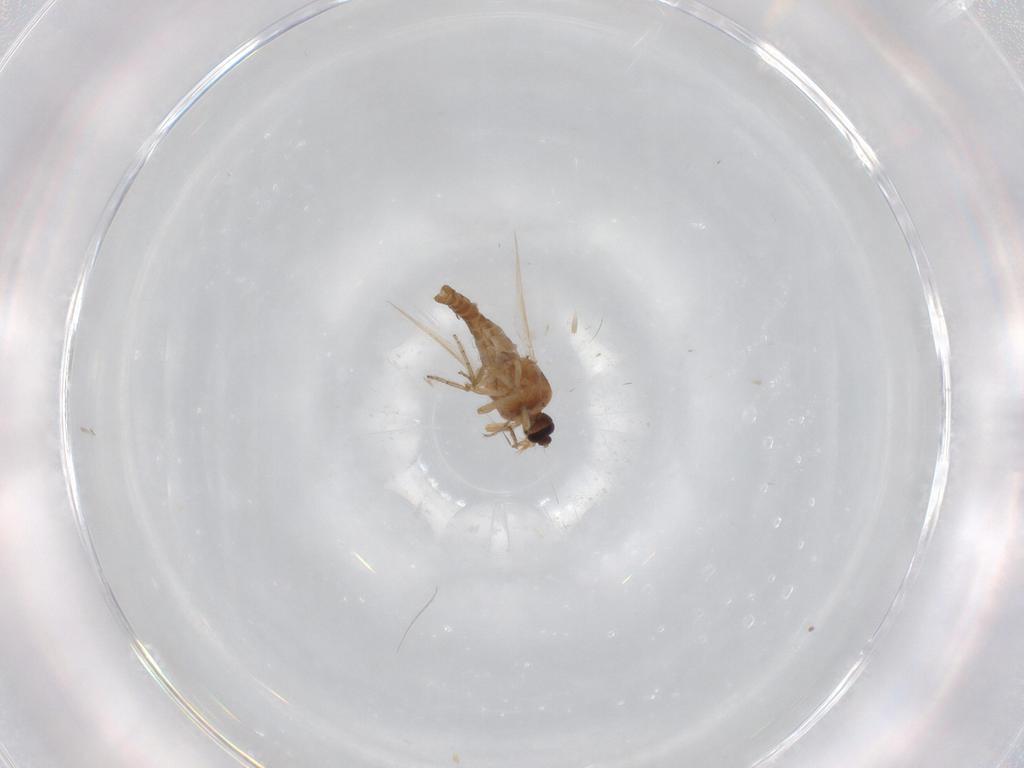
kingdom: Animalia
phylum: Arthropoda
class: Insecta
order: Diptera
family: Ceratopogonidae
